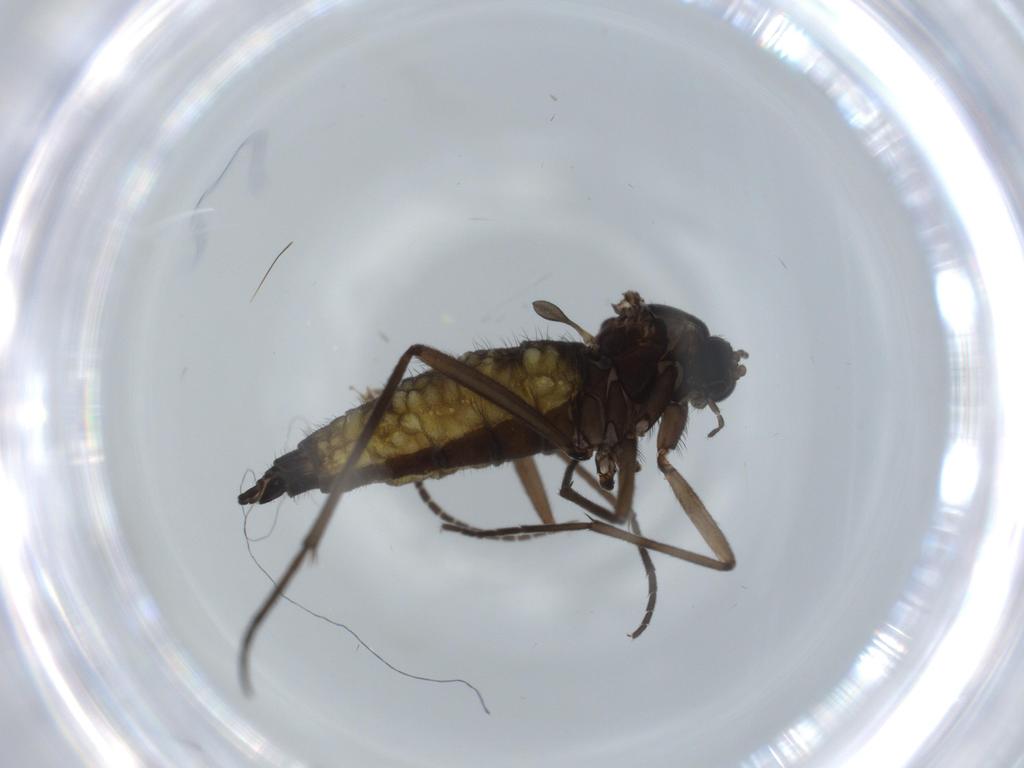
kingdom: Animalia
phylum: Arthropoda
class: Insecta
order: Diptera
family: Sciaridae
